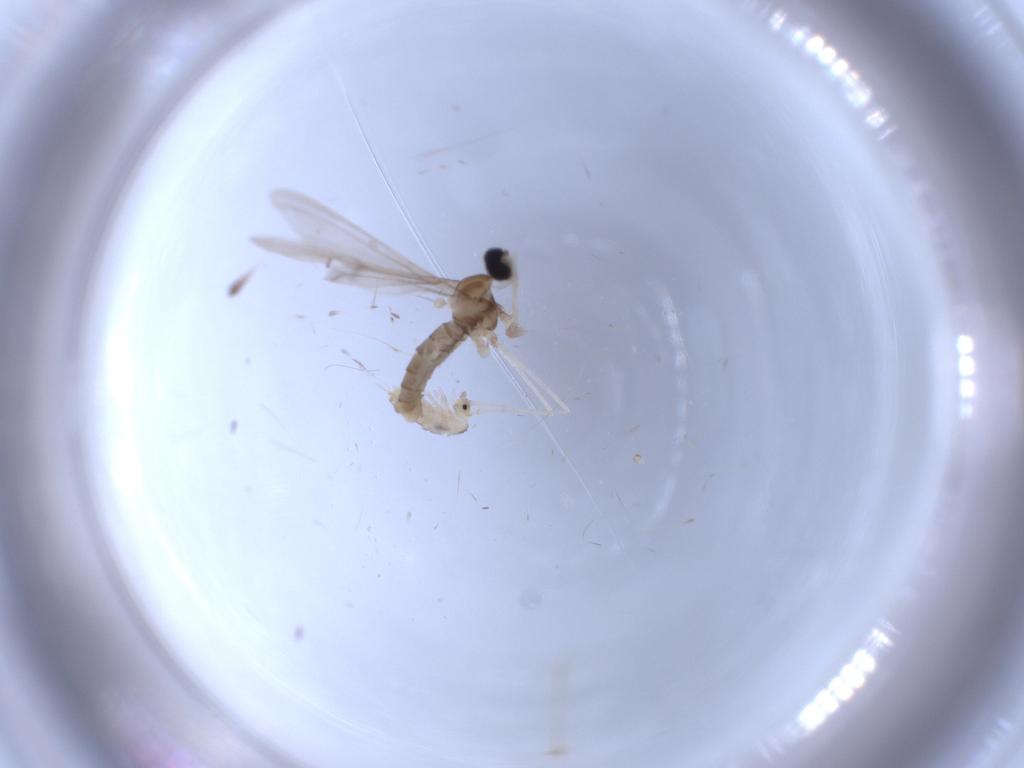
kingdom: Animalia
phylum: Arthropoda
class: Insecta
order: Diptera
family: Cecidomyiidae
